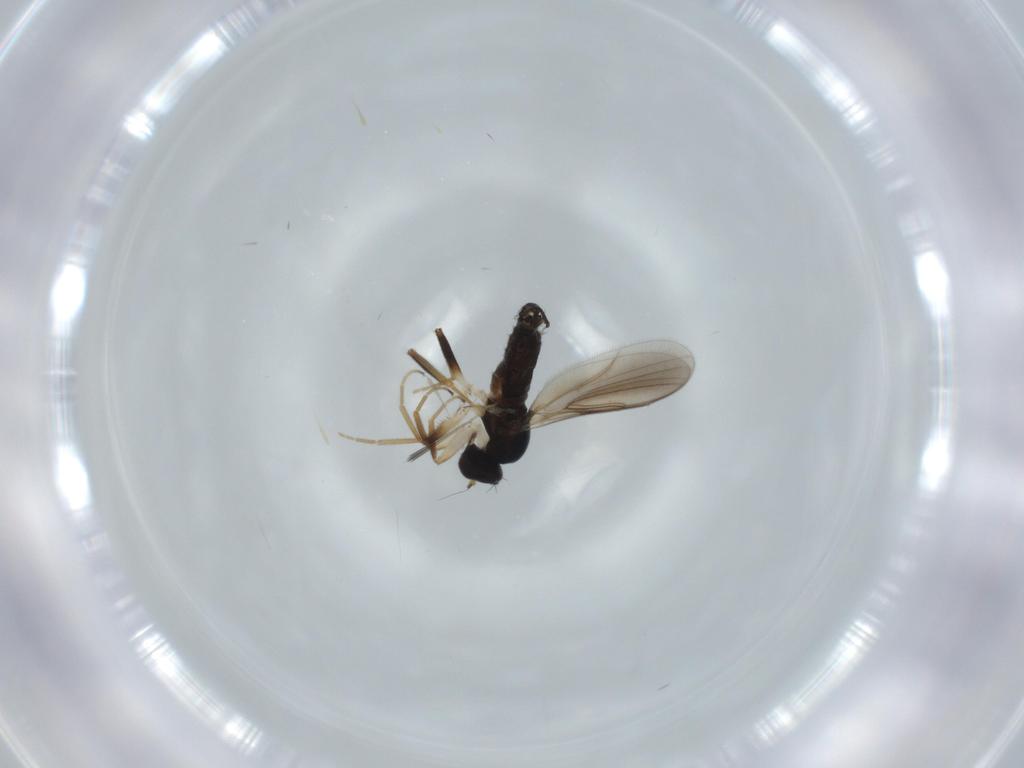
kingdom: Animalia
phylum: Arthropoda
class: Insecta
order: Diptera
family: Hybotidae
